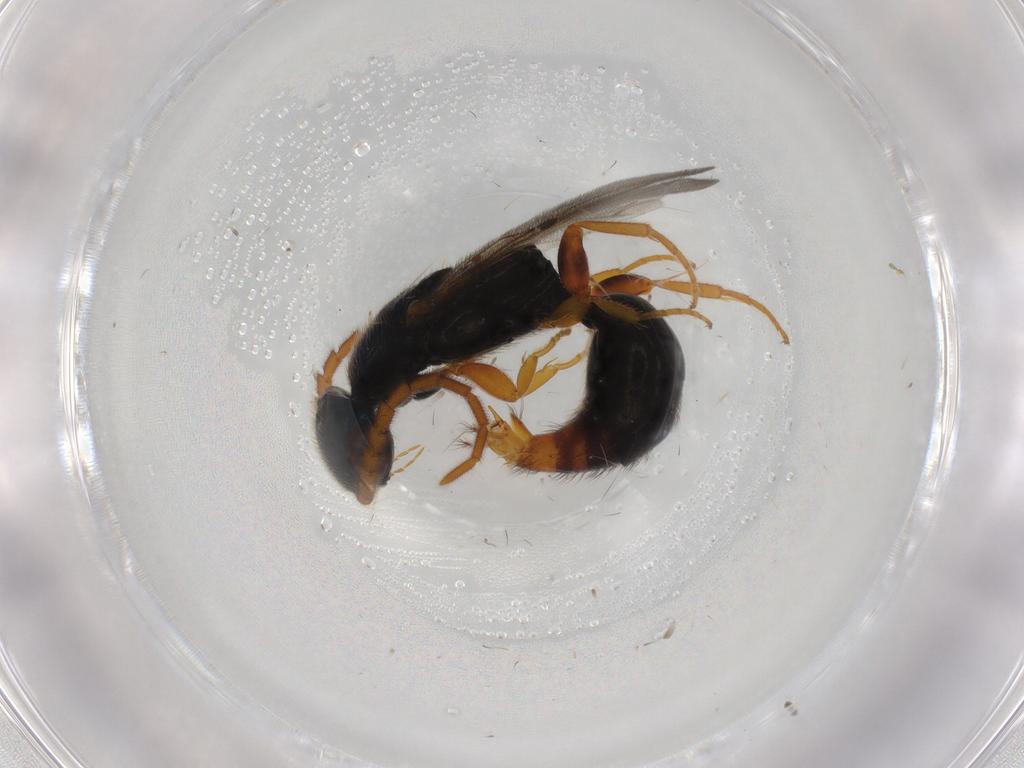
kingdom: Animalia
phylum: Arthropoda
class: Insecta
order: Hymenoptera
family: Bethylidae
